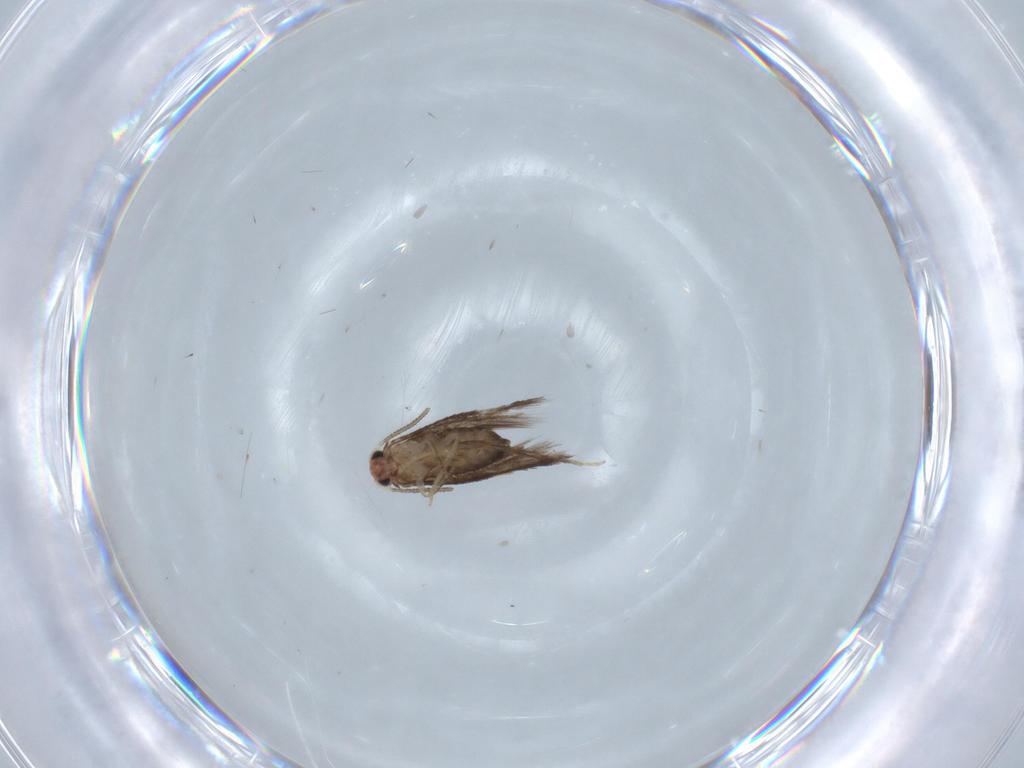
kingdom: Animalia
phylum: Arthropoda
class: Insecta
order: Lepidoptera
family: Nepticulidae
